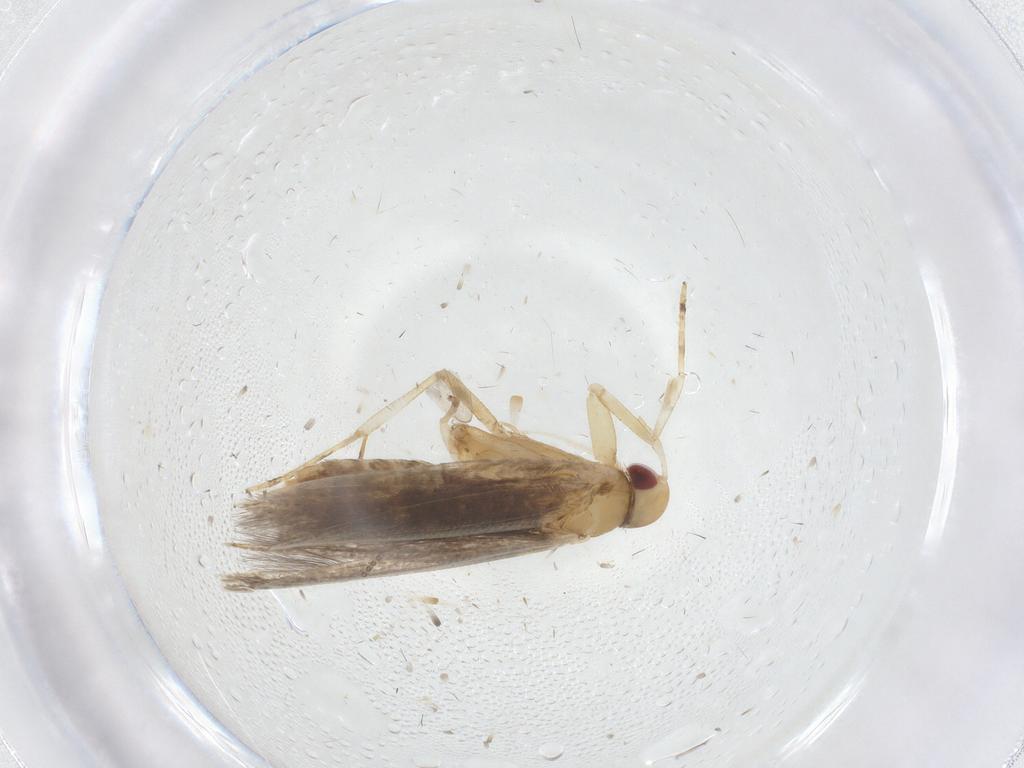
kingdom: Animalia
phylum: Arthropoda
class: Insecta
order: Lepidoptera
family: Cosmopterigidae
